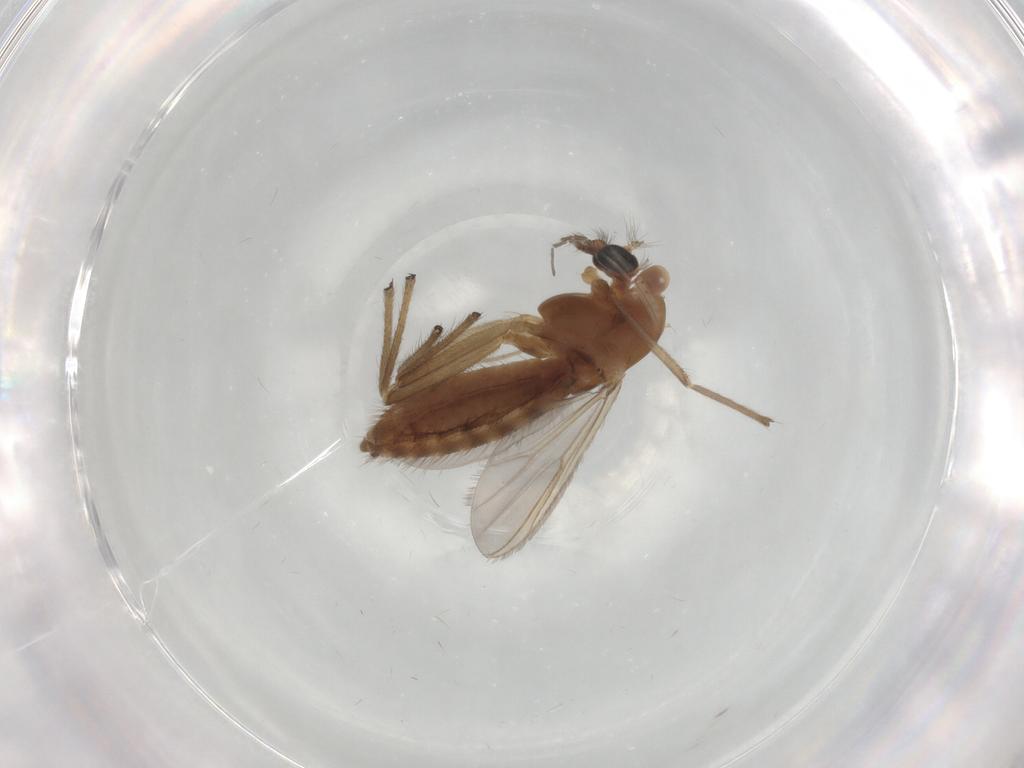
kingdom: Animalia
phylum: Arthropoda
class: Insecta
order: Diptera
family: Chironomidae
